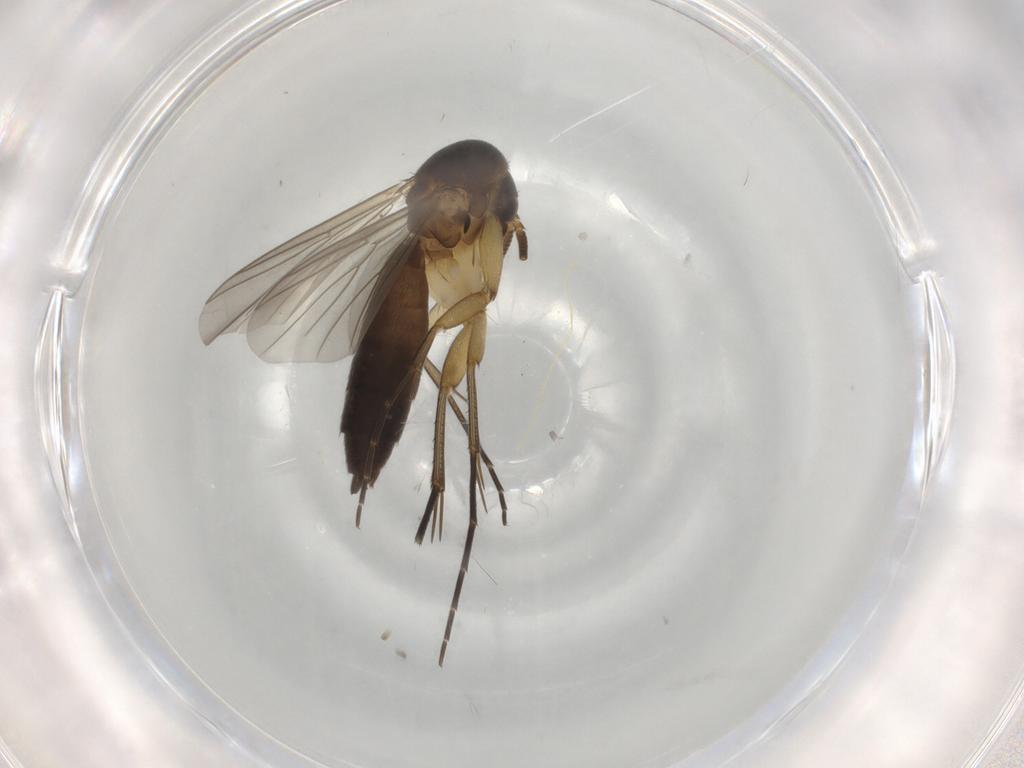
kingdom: Animalia
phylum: Arthropoda
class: Insecta
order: Diptera
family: Mycetophilidae
